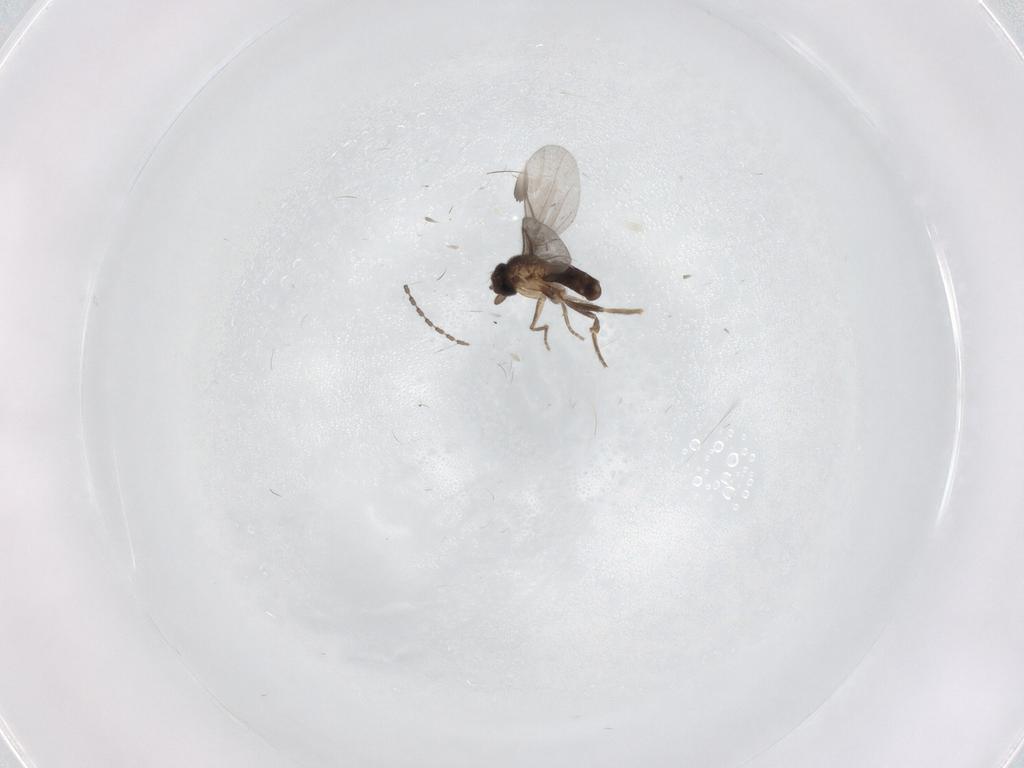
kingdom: Animalia
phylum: Arthropoda
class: Insecta
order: Diptera
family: Phoridae
